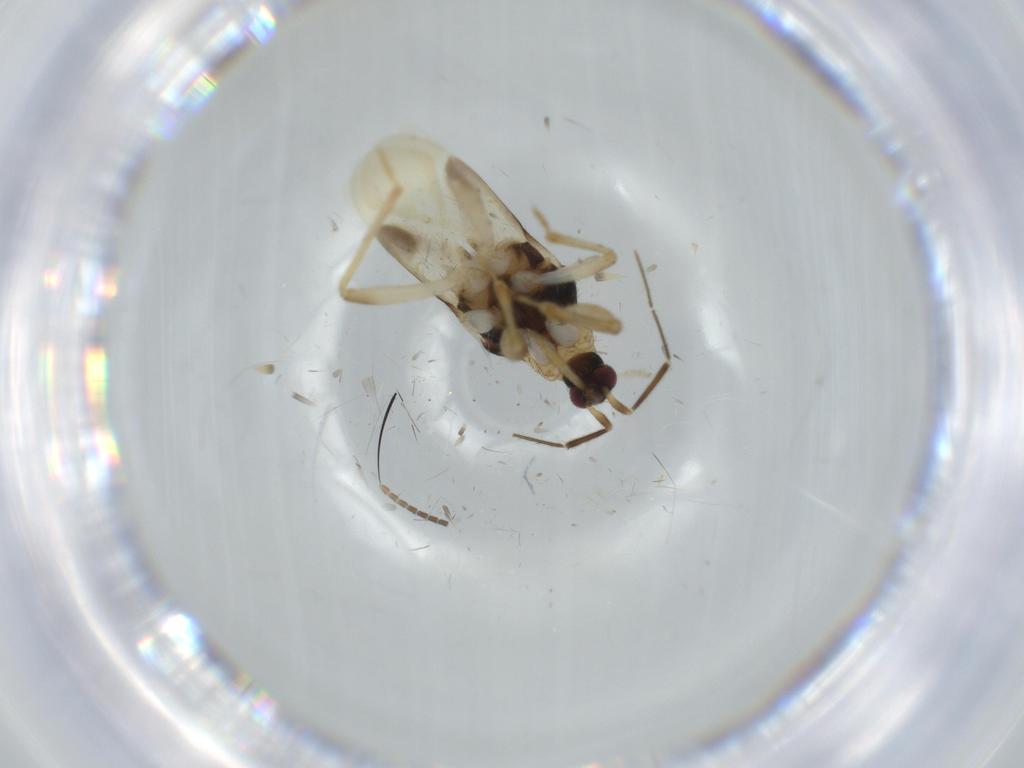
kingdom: Animalia
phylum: Arthropoda
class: Insecta
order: Hemiptera
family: Nabidae
